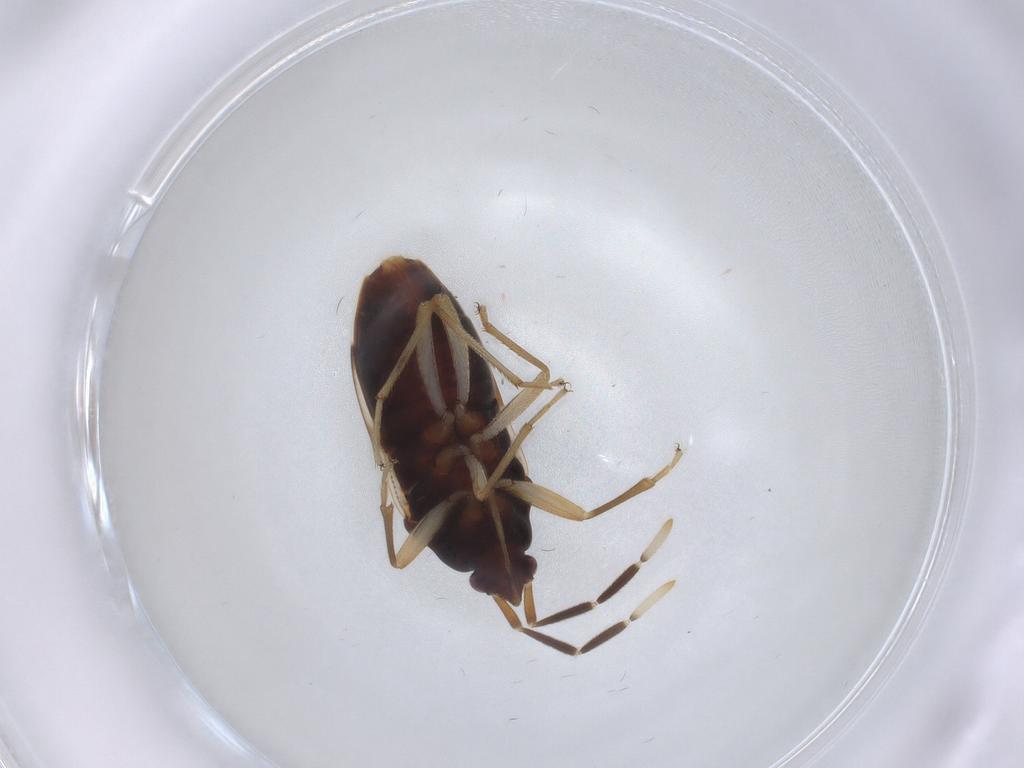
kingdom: Animalia
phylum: Arthropoda
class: Insecta
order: Hemiptera
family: Rhyparochromidae
